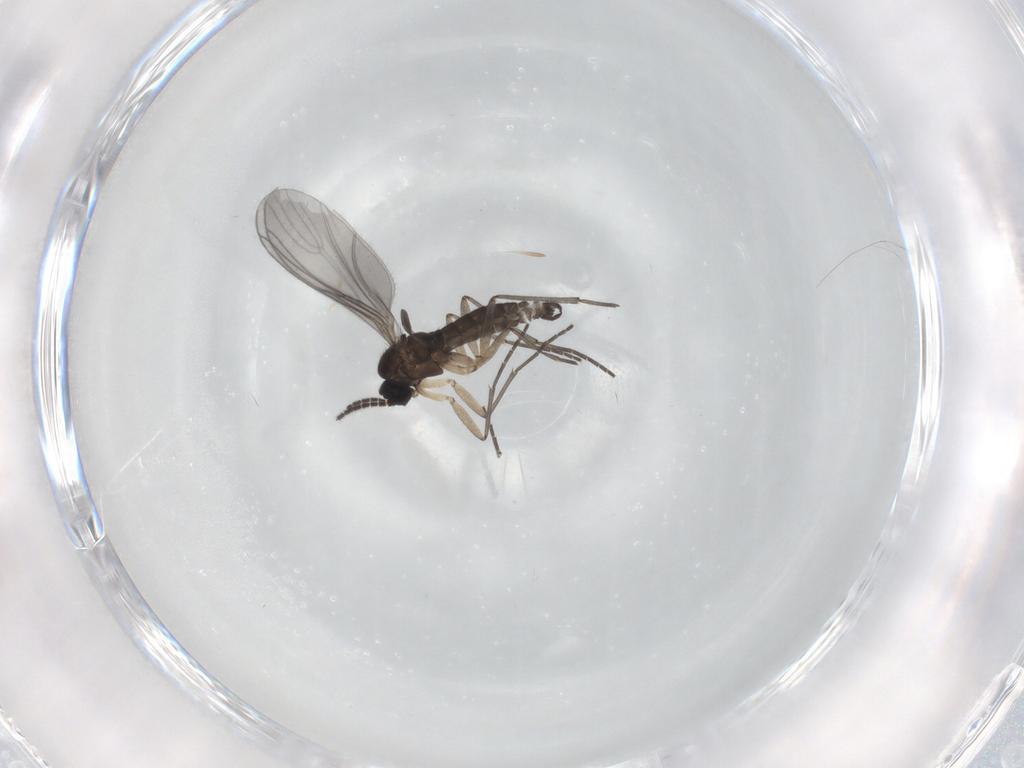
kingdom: Animalia
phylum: Arthropoda
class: Insecta
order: Diptera
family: Sciaridae
